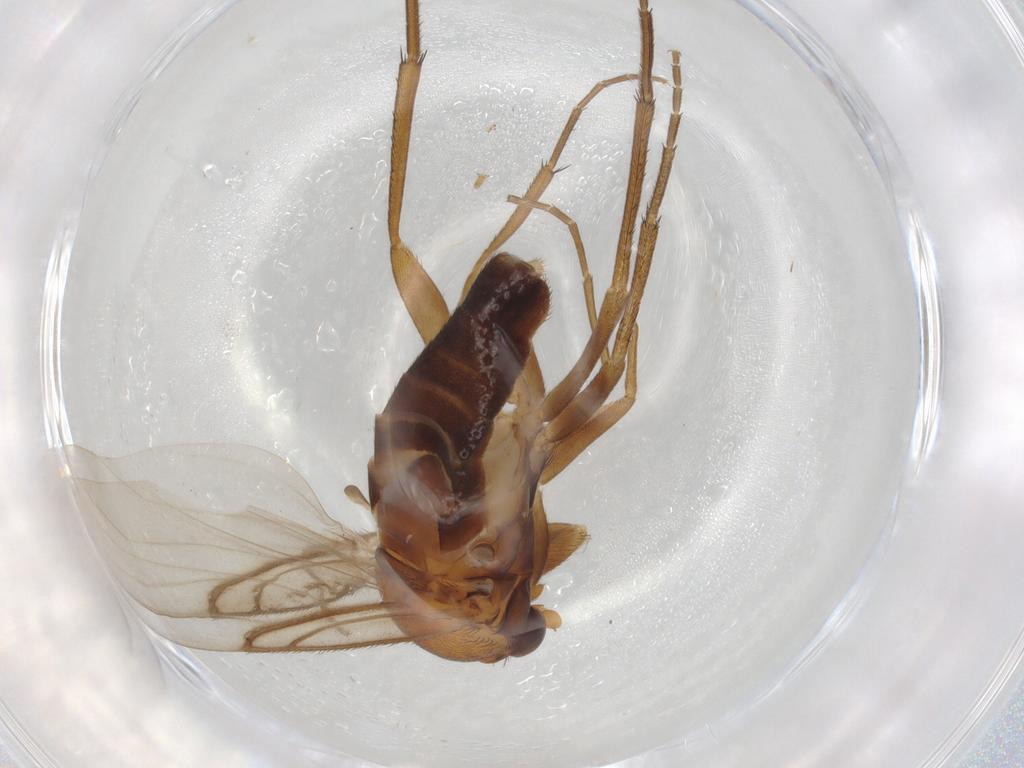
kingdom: Animalia
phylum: Arthropoda
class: Insecta
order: Diptera
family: Phoridae
